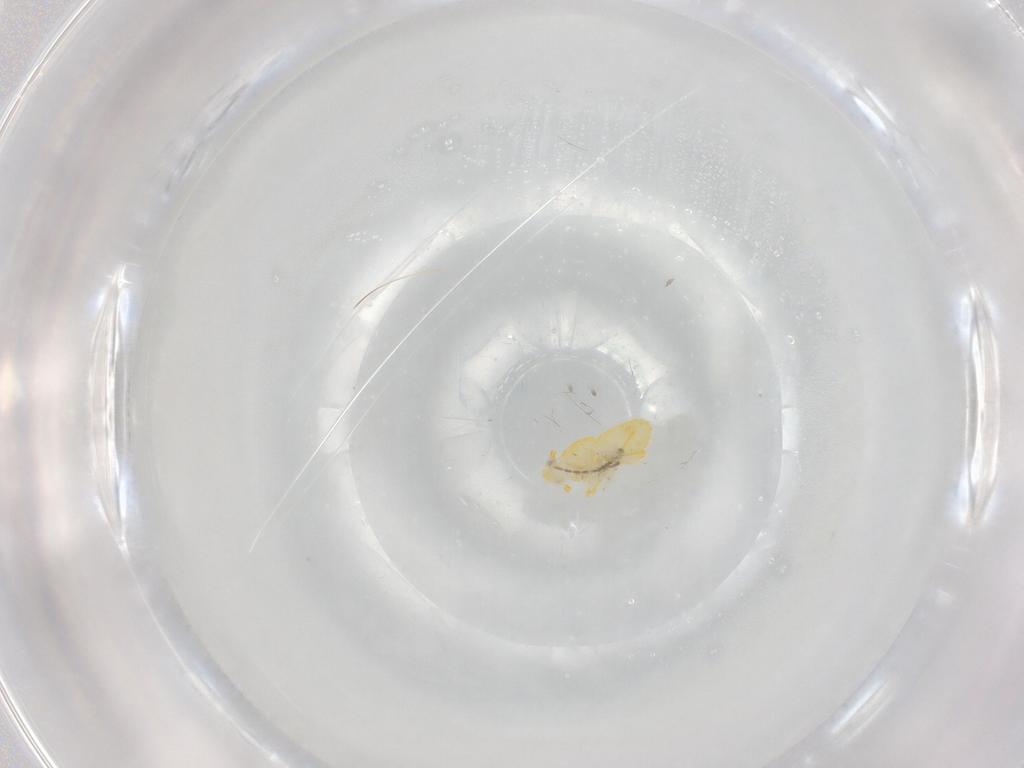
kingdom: Animalia
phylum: Arthropoda
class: Insecta
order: Hemiptera
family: Delphacidae
